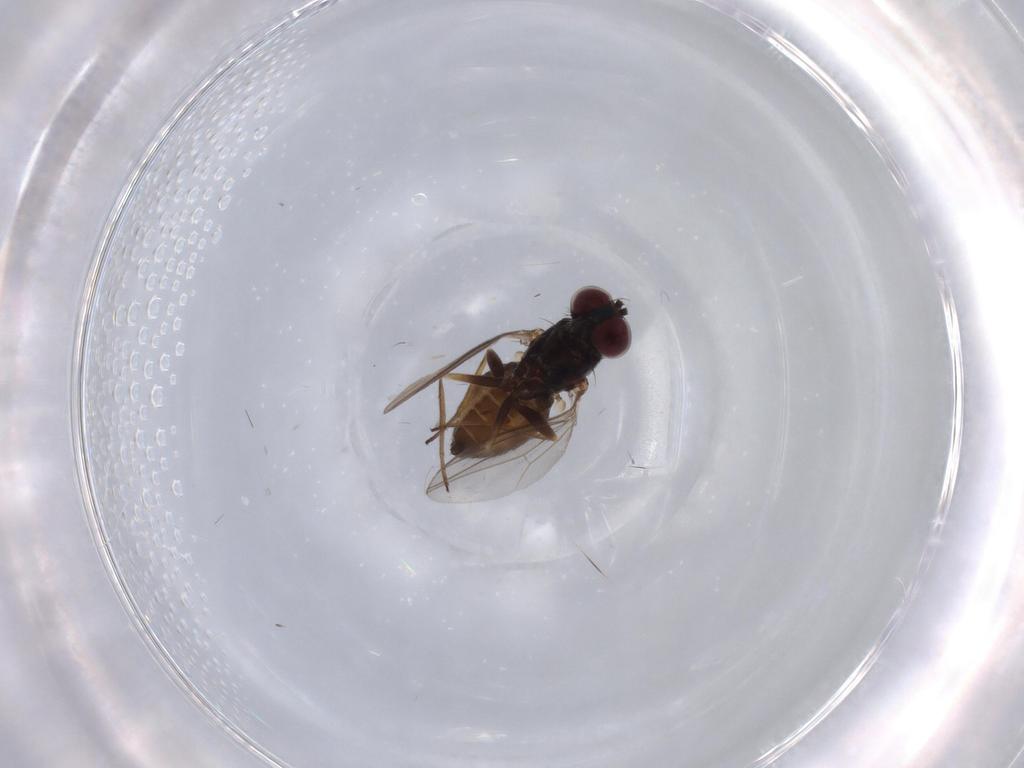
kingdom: Animalia
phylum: Arthropoda
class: Insecta
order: Diptera
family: Dolichopodidae
